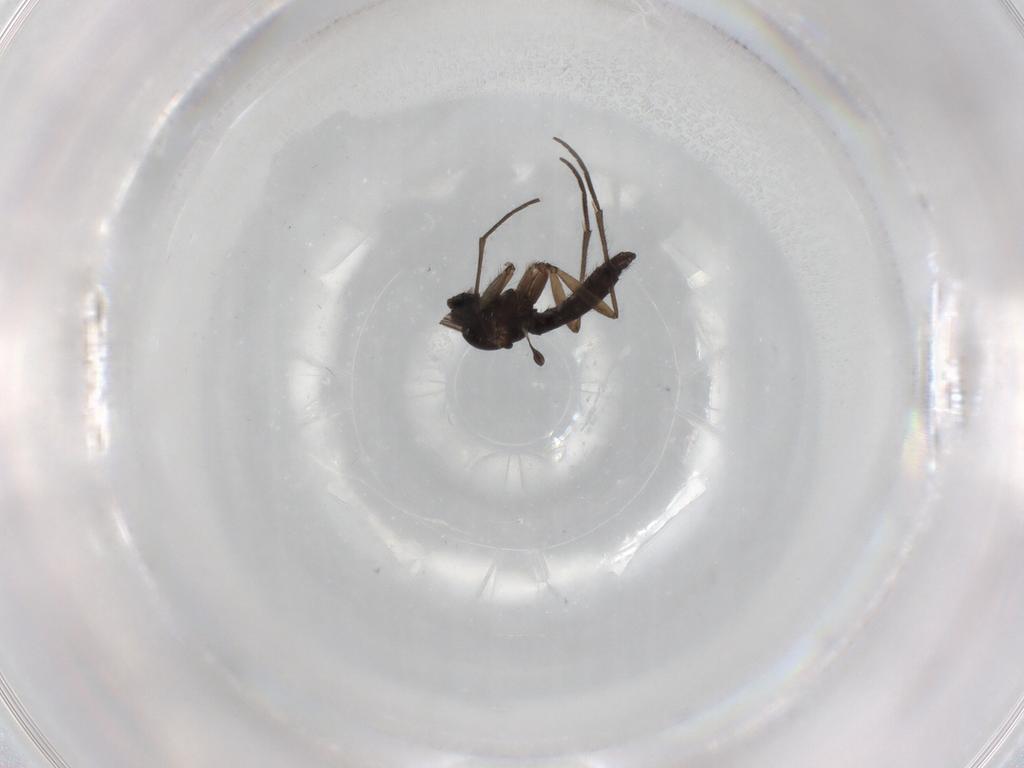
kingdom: Animalia
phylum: Arthropoda
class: Insecta
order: Diptera
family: Sciaridae
